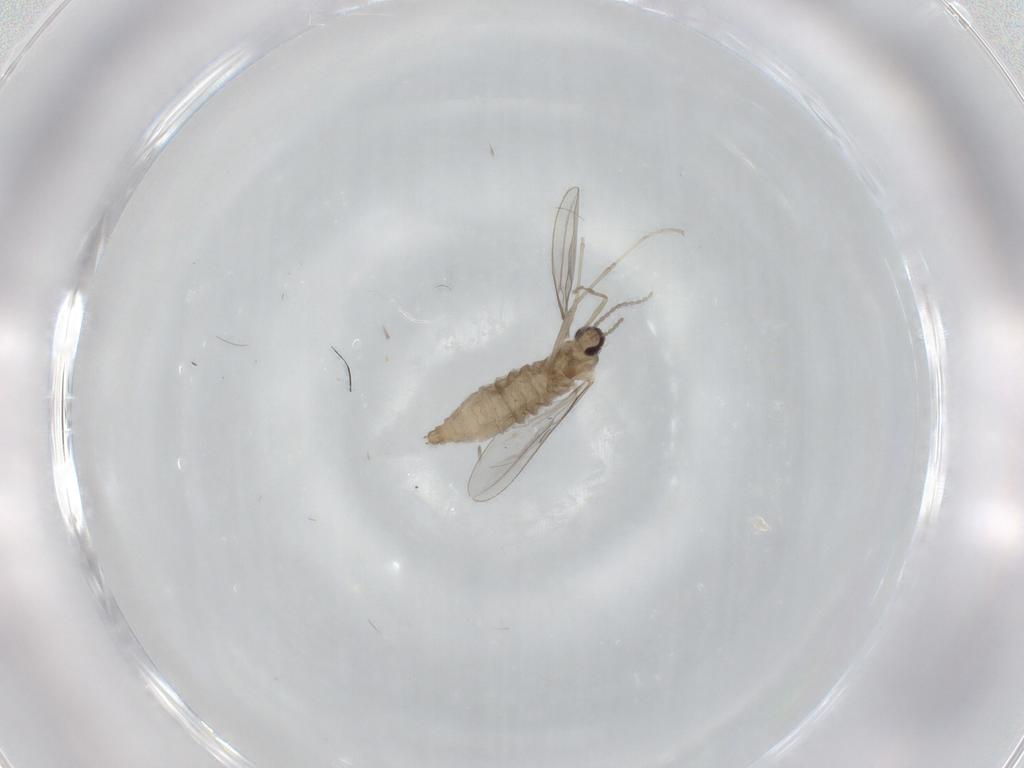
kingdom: Animalia
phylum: Arthropoda
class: Insecta
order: Diptera
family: Cecidomyiidae
